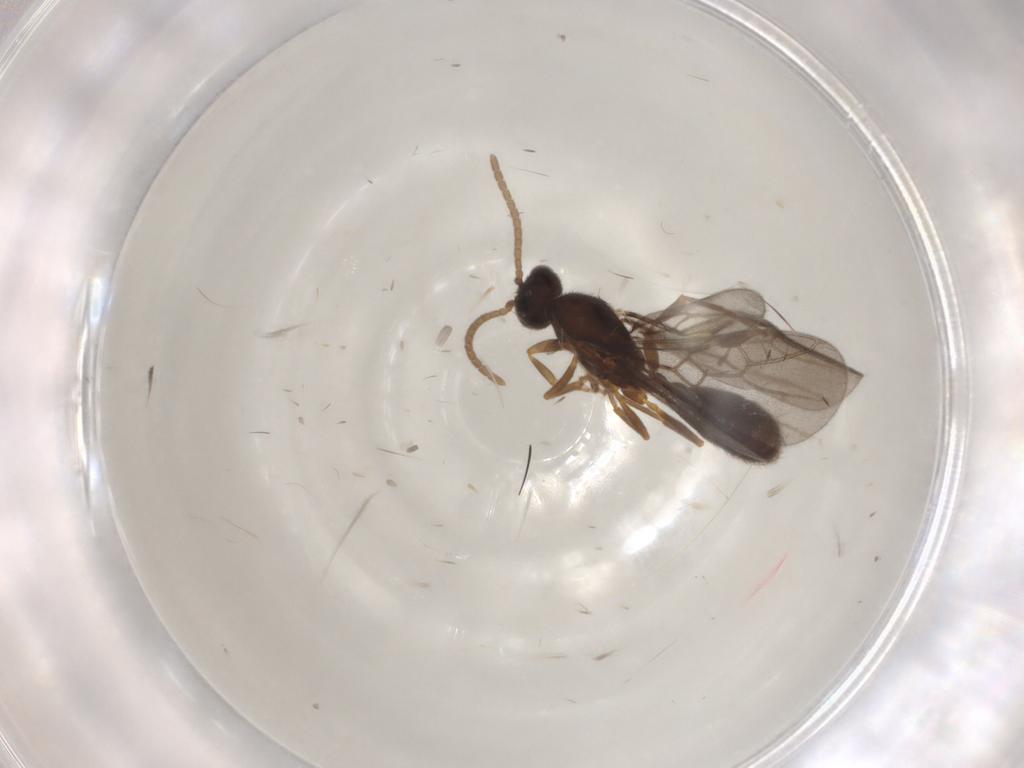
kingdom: Animalia
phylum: Arthropoda
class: Insecta
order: Hymenoptera
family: Formicidae
